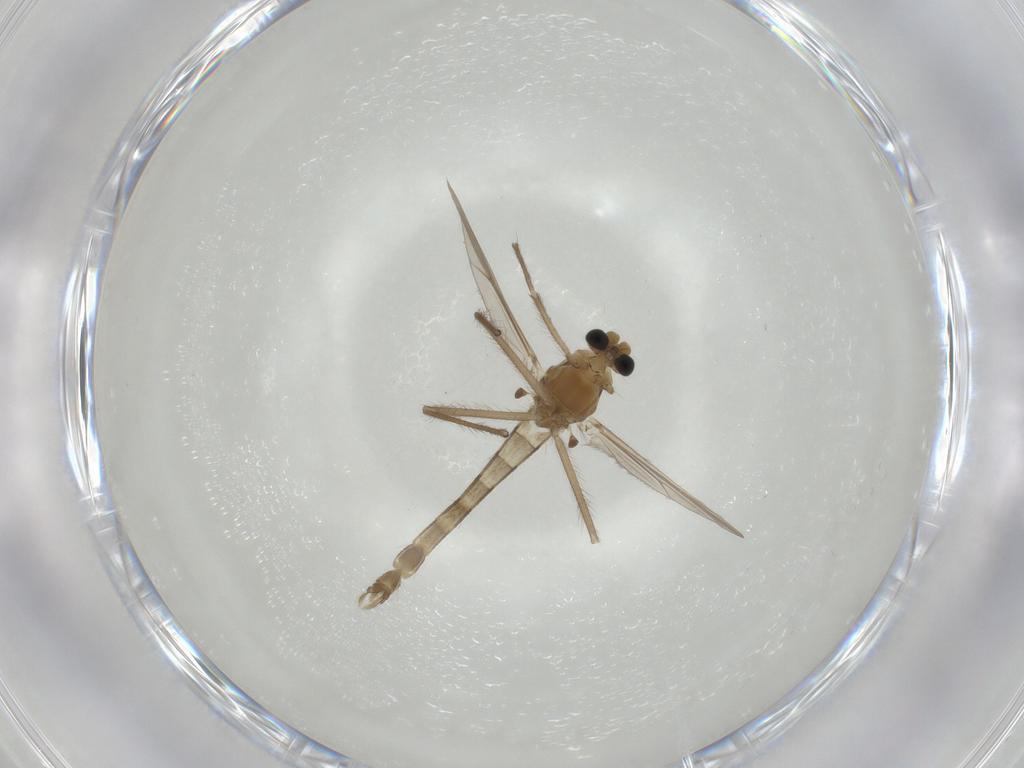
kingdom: Animalia
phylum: Arthropoda
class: Insecta
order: Diptera
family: Chironomidae
